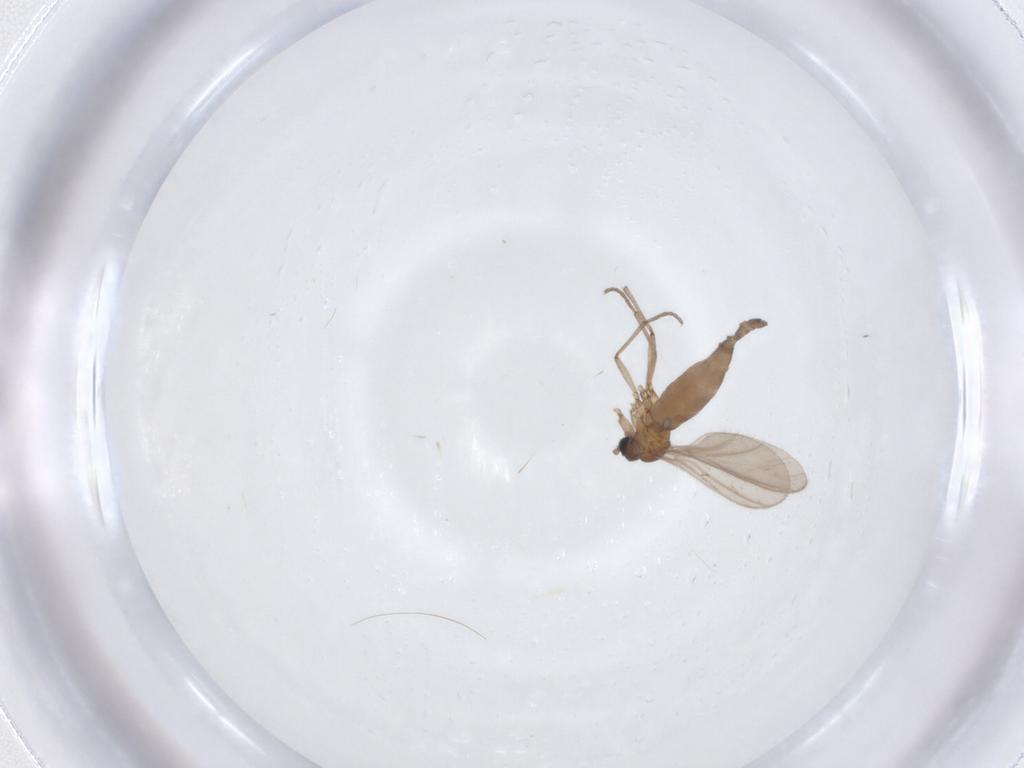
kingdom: Animalia
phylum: Arthropoda
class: Insecta
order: Diptera
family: Sciaridae
